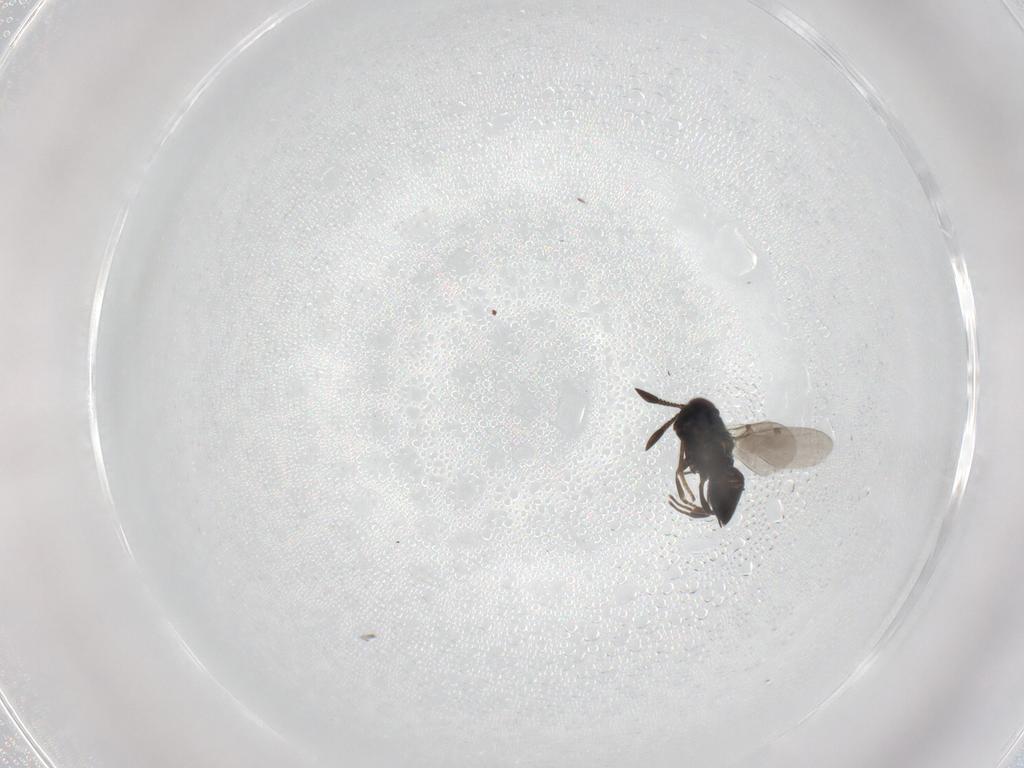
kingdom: Animalia
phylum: Arthropoda
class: Insecta
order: Hymenoptera
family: Encyrtidae
